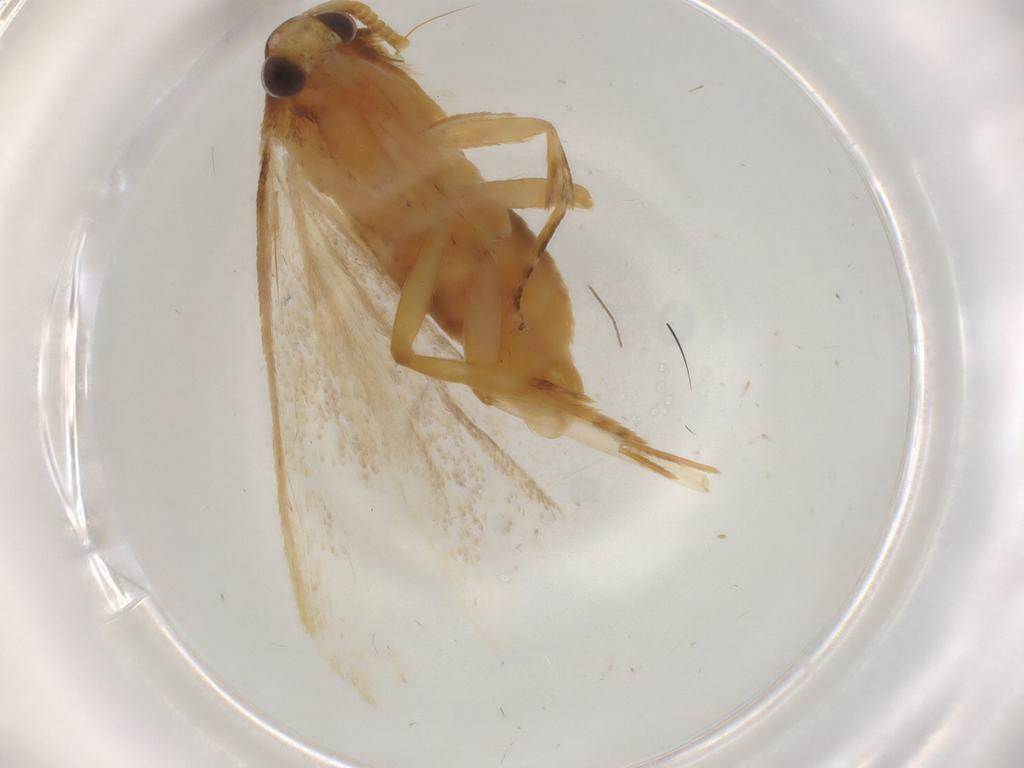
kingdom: Animalia
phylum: Arthropoda
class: Insecta
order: Lepidoptera
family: Lecithoceridae
